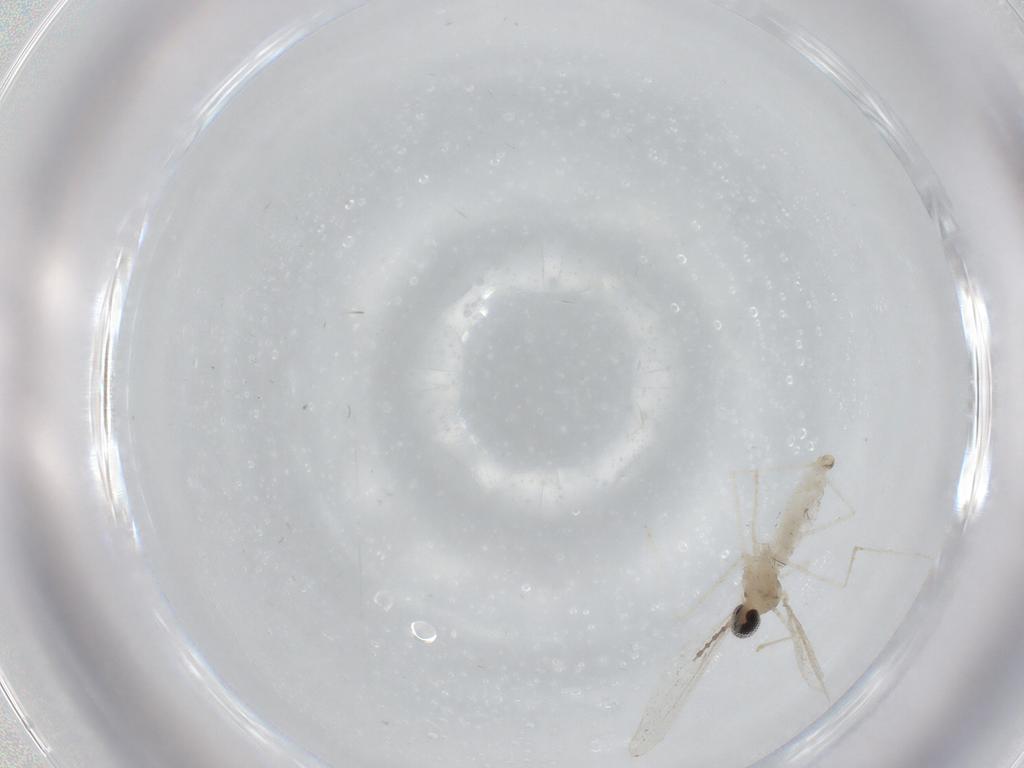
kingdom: Animalia
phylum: Arthropoda
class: Insecta
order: Diptera
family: Cecidomyiidae
